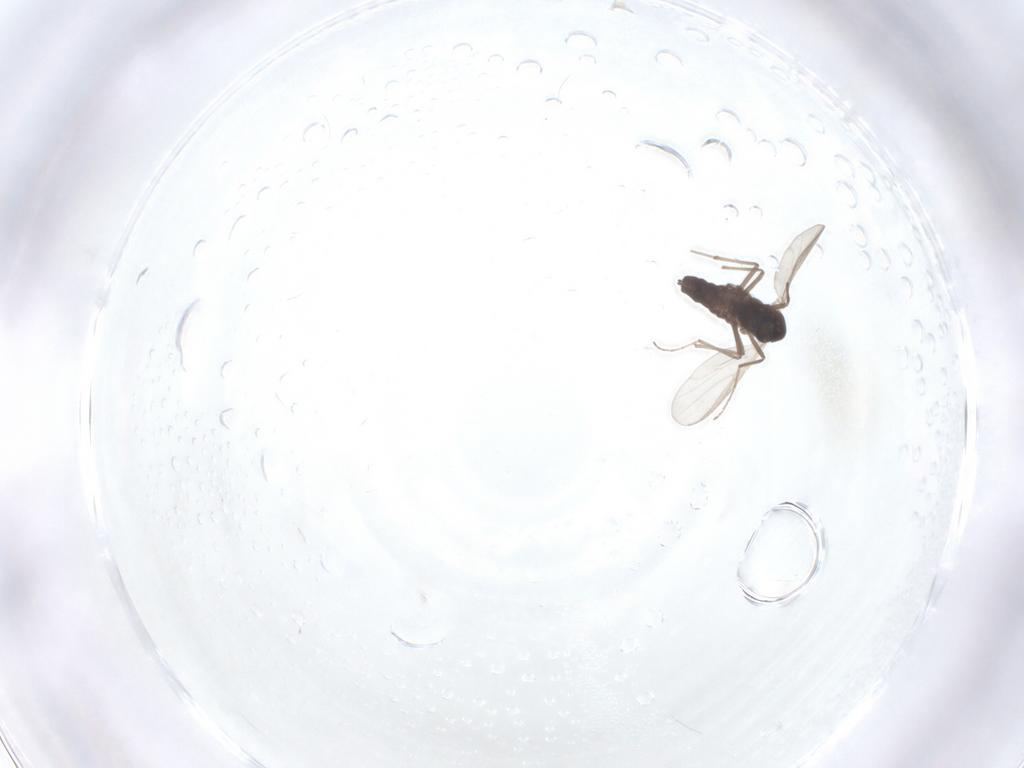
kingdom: Animalia
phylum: Arthropoda
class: Insecta
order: Diptera
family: Chironomidae
